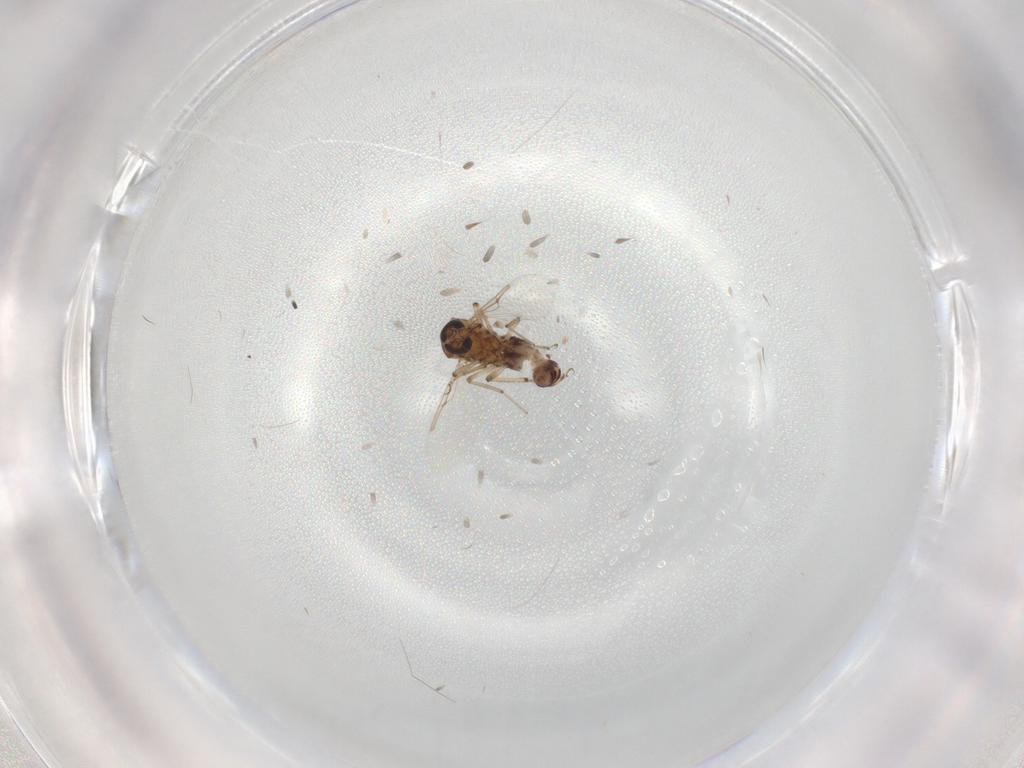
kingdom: Animalia
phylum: Arthropoda
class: Insecta
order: Diptera
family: Ceratopogonidae
